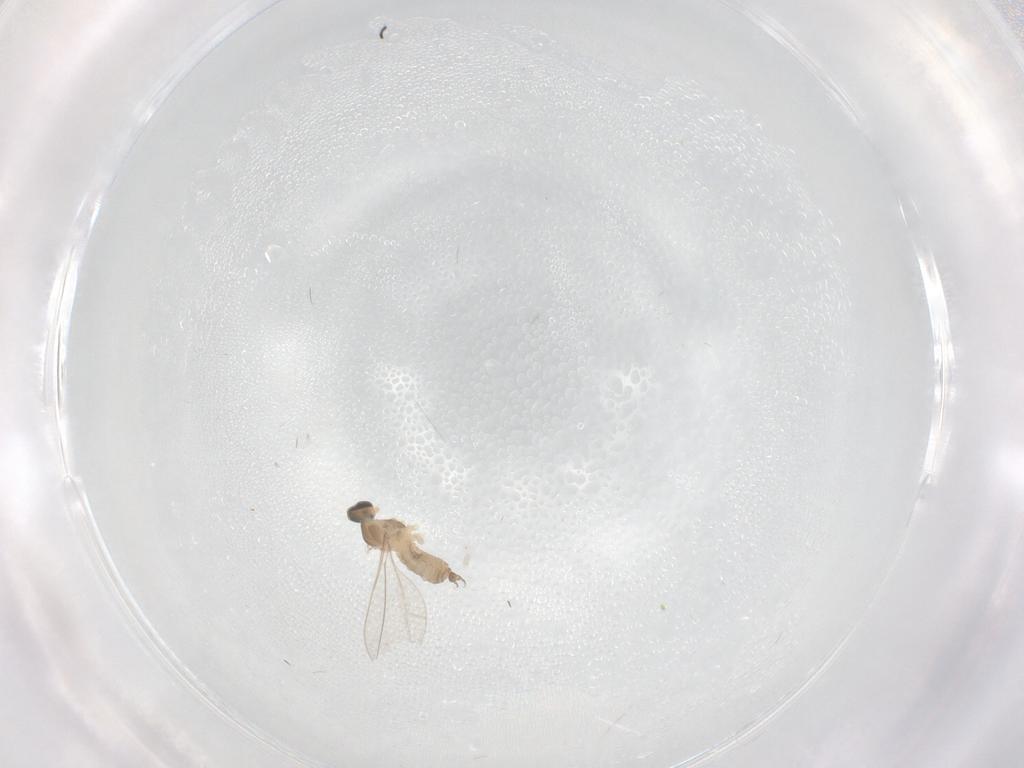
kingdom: Animalia
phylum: Arthropoda
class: Insecta
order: Diptera
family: Cecidomyiidae
